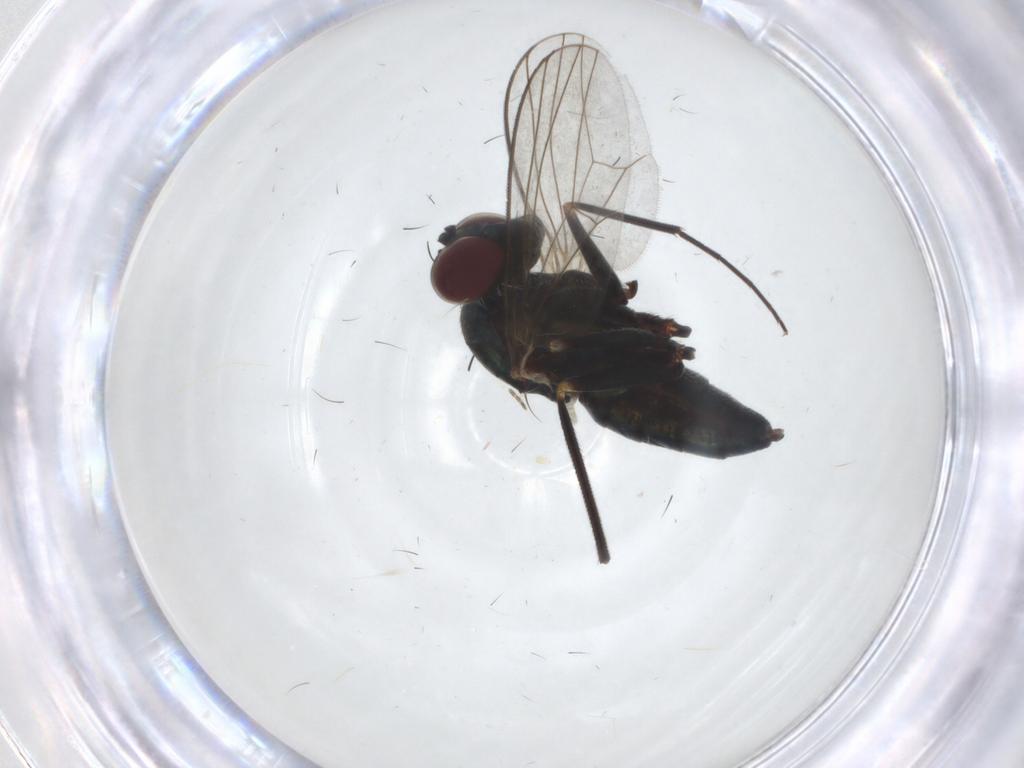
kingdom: Animalia
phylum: Arthropoda
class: Insecta
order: Diptera
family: Dolichopodidae
